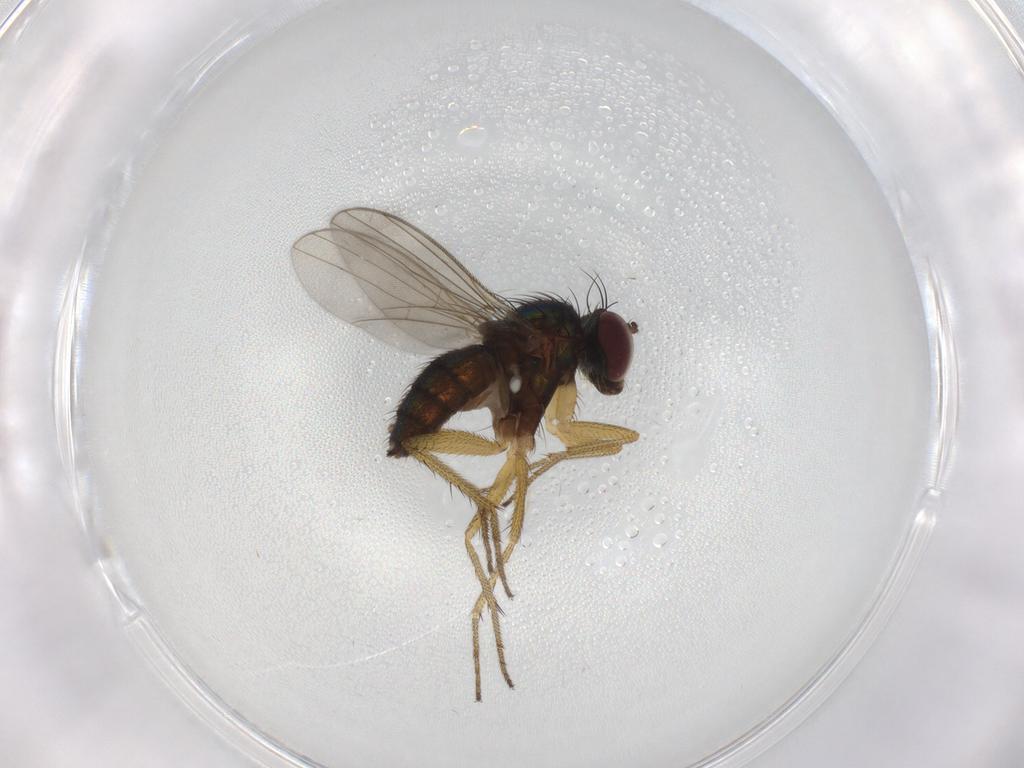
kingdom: Animalia
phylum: Arthropoda
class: Insecta
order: Diptera
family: Dolichopodidae
